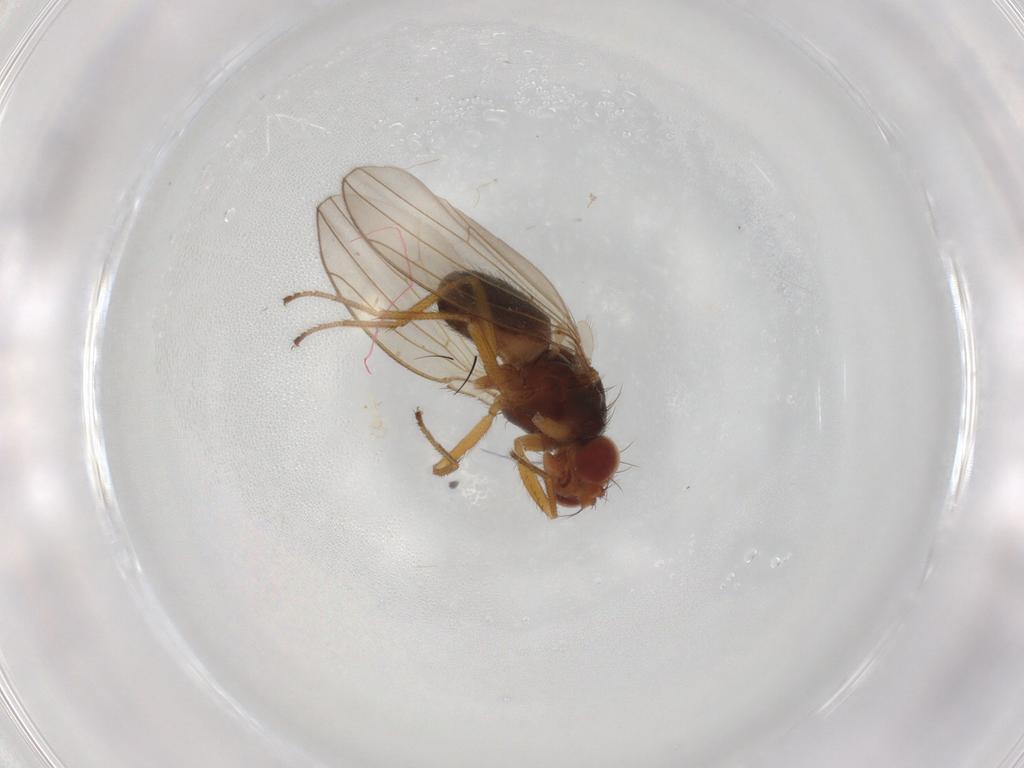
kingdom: Animalia
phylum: Arthropoda
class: Insecta
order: Diptera
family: Drosophilidae
